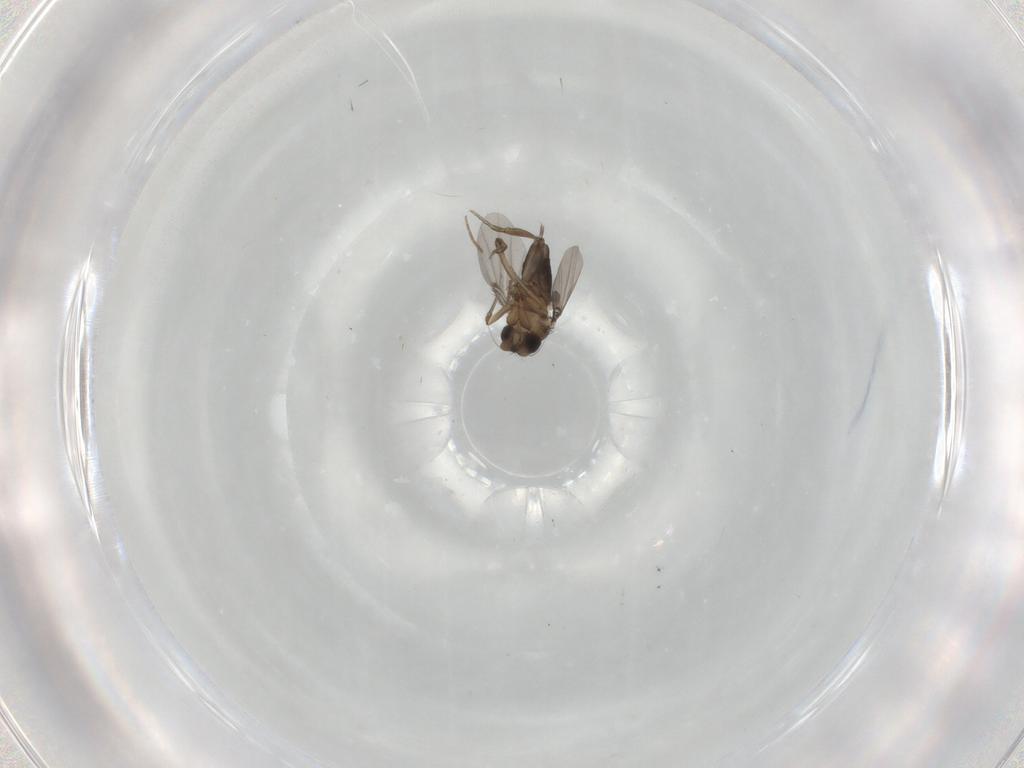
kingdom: Animalia
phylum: Arthropoda
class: Insecta
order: Diptera
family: Cecidomyiidae
